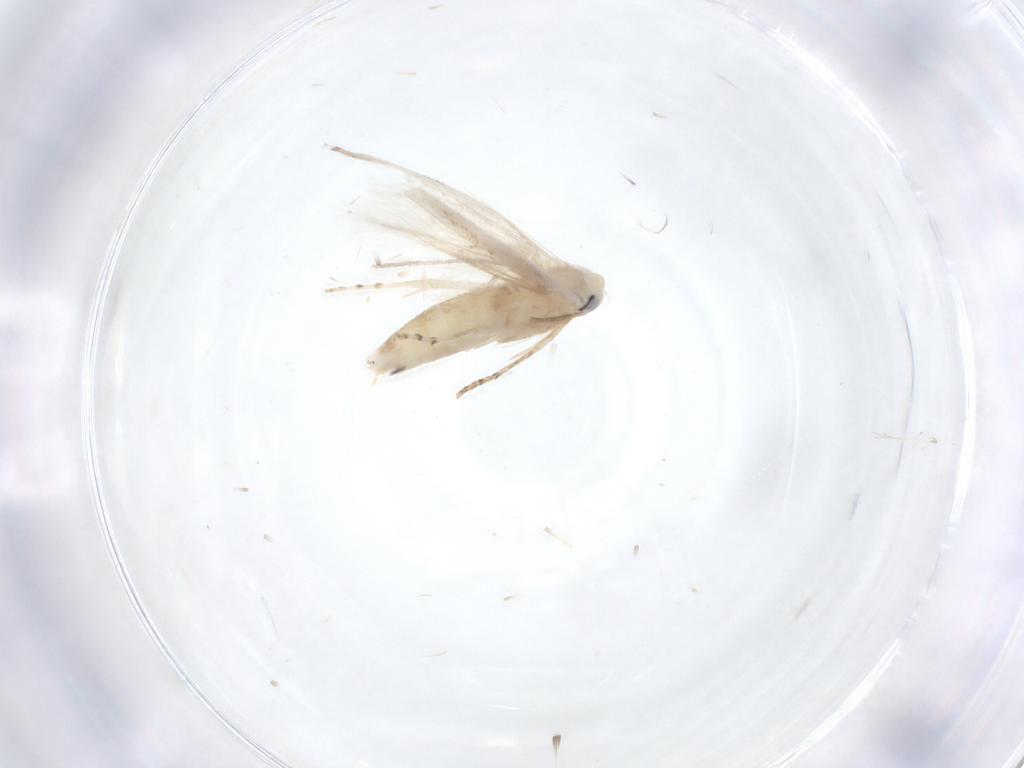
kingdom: Animalia
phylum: Arthropoda
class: Insecta
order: Lepidoptera
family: Lyonetiidae
